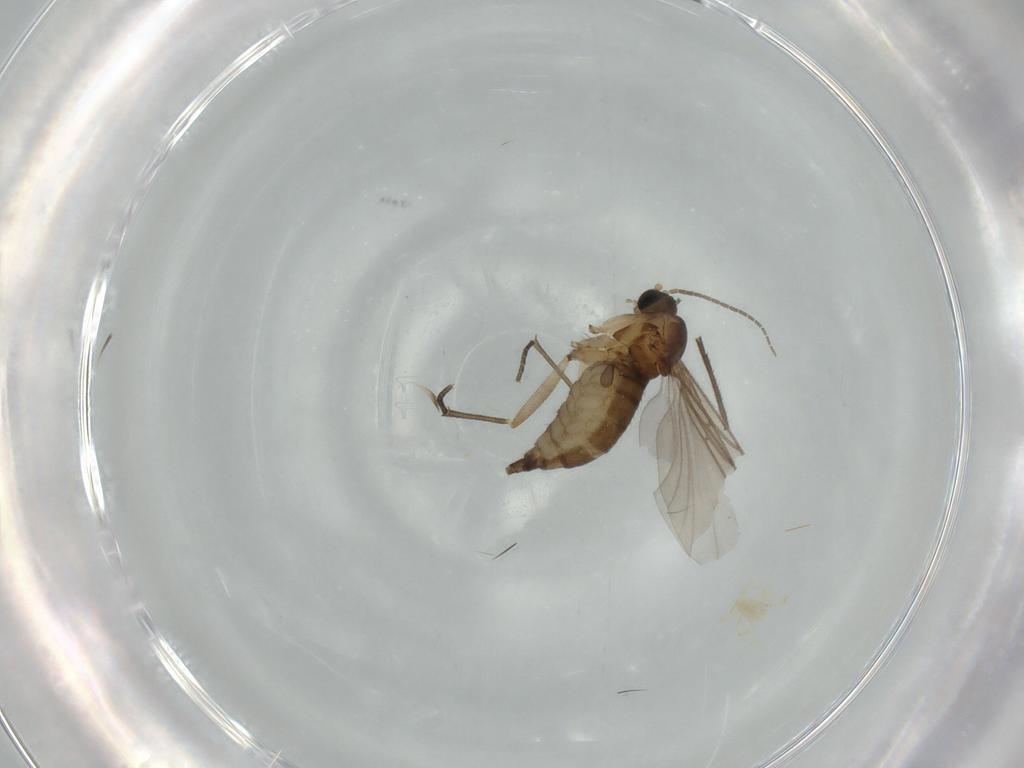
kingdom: Animalia
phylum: Arthropoda
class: Insecta
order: Diptera
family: Sciaridae
